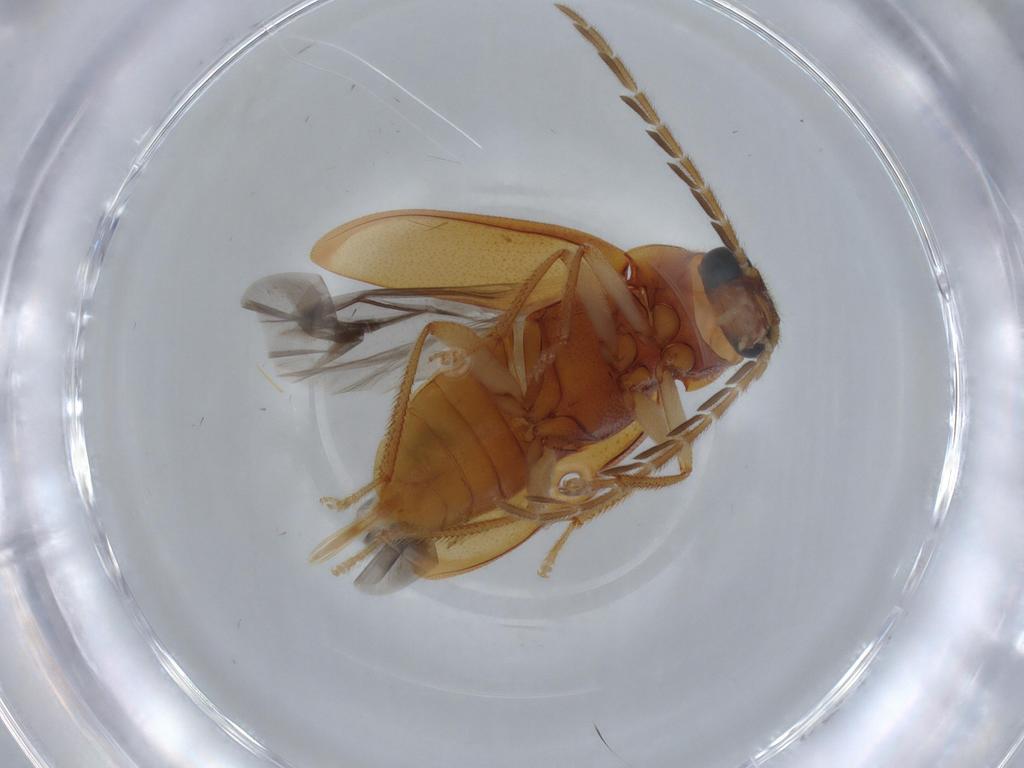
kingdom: Animalia
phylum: Arthropoda
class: Insecta
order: Coleoptera
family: Ptilodactylidae
